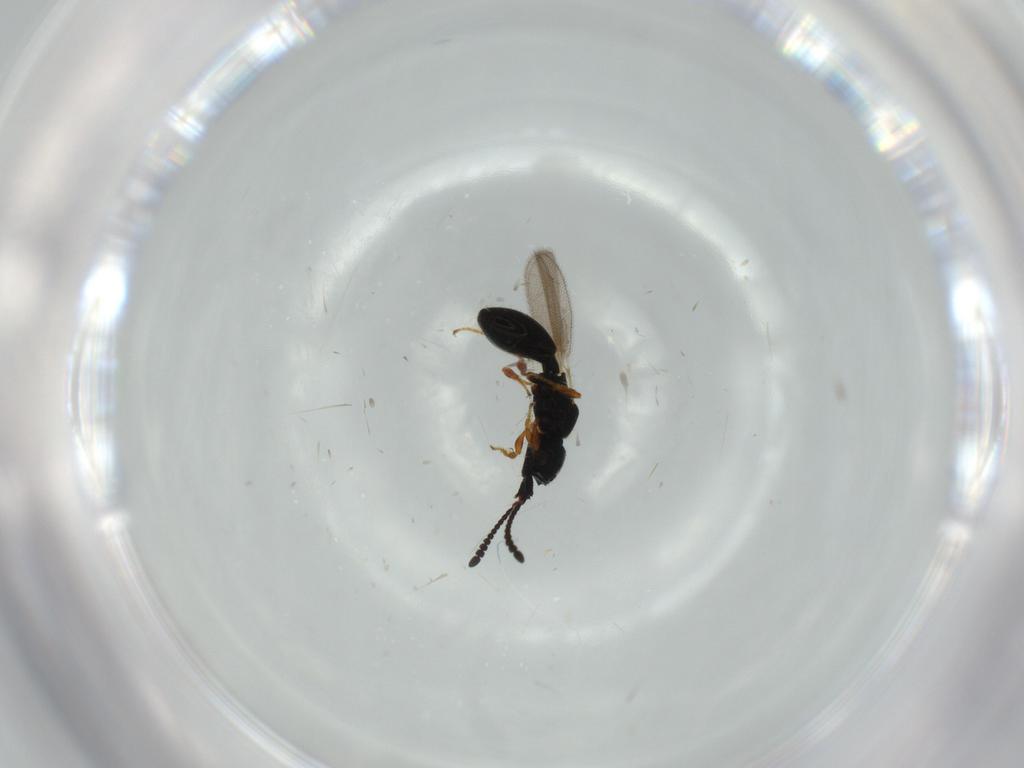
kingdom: Animalia
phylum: Arthropoda
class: Insecta
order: Hymenoptera
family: Diapriidae
